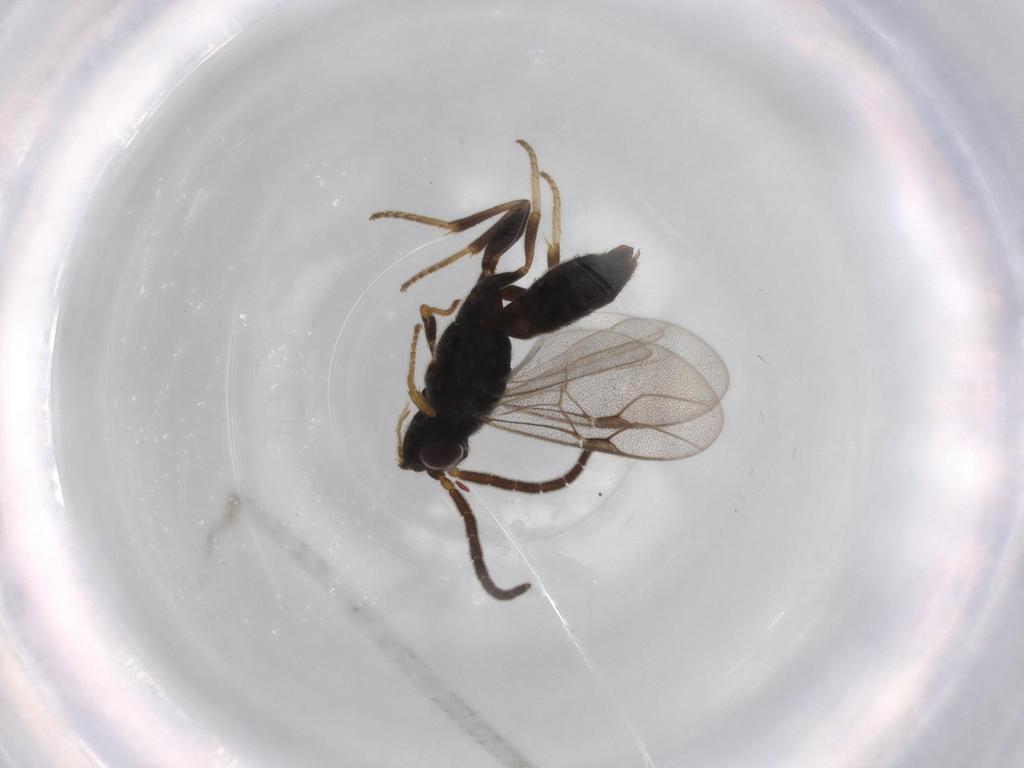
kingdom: Animalia
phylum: Arthropoda
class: Insecta
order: Hymenoptera
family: Dryinidae
